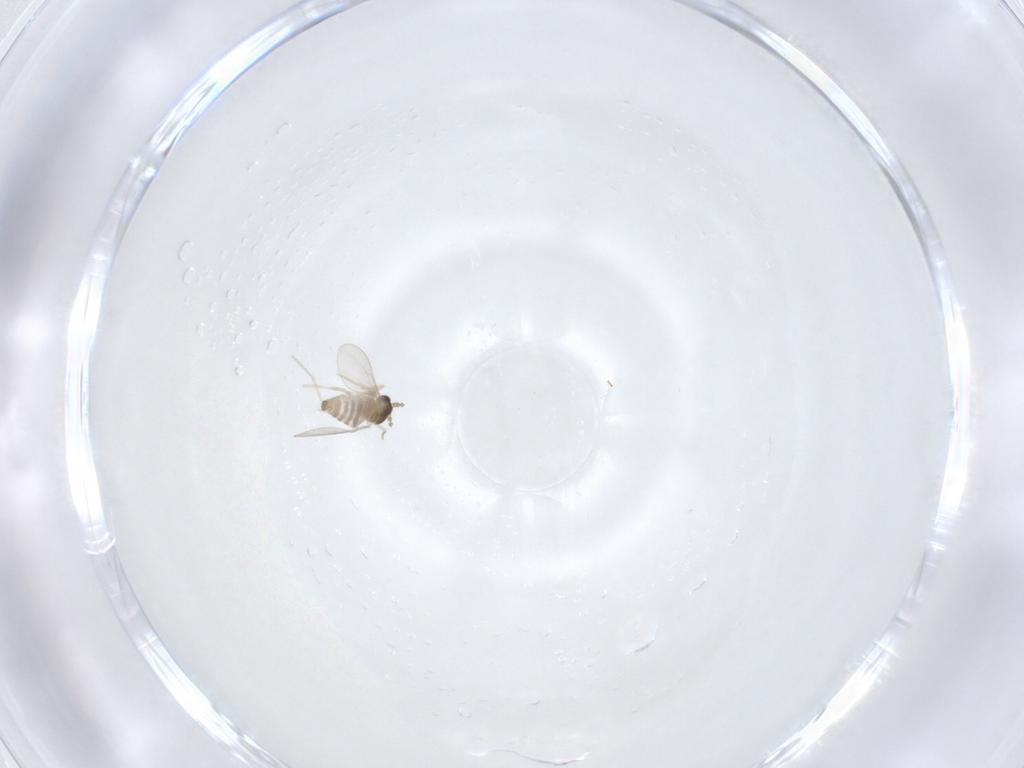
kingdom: Animalia
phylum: Arthropoda
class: Insecta
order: Diptera
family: Cecidomyiidae
